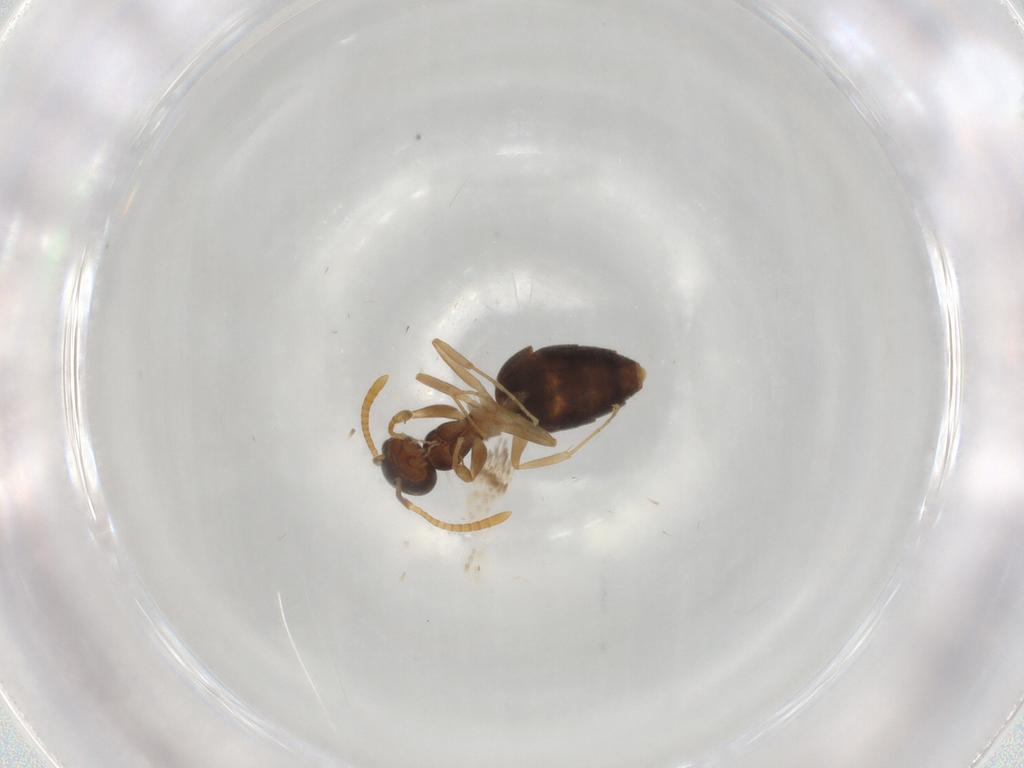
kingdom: Animalia
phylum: Arthropoda
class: Insecta
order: Hymenoptera
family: Formicidae
